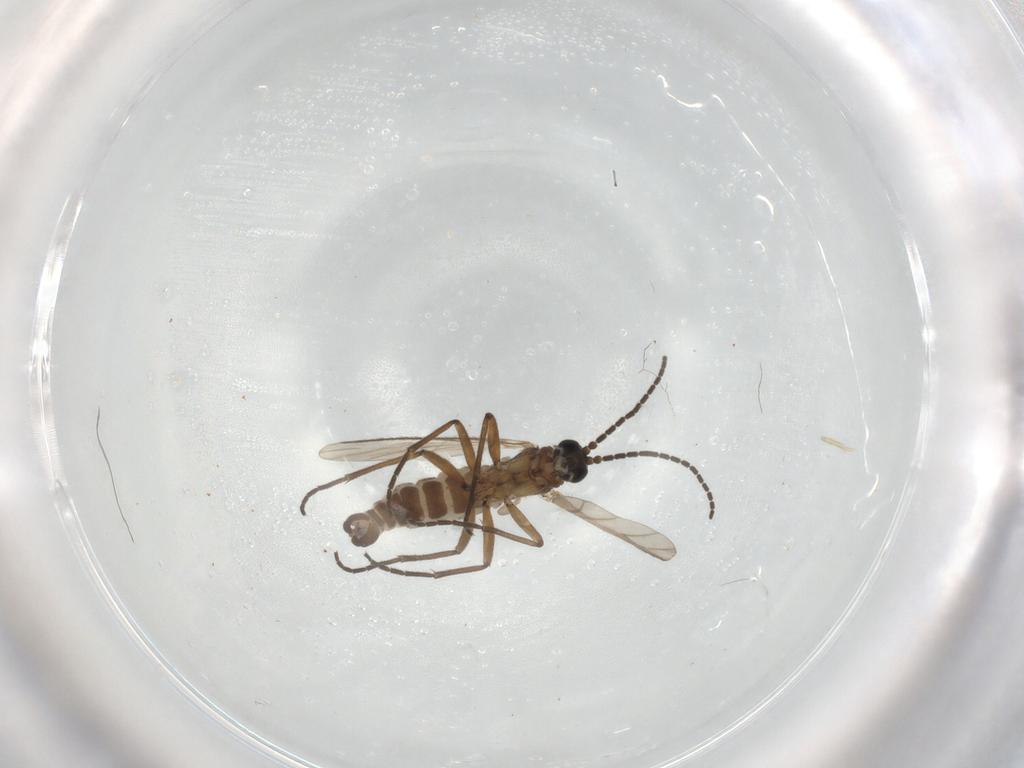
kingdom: Animalia
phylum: Arthropoda
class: Insecta
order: Diptera
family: Sciaridae
